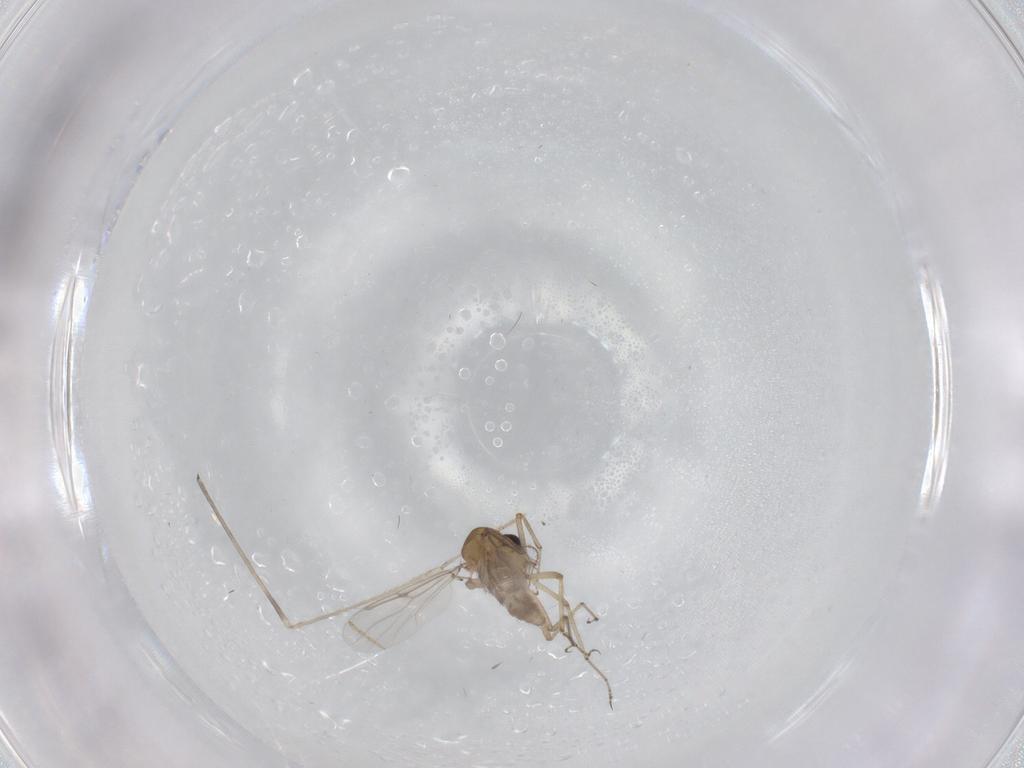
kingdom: Animalia
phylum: Arthropoda
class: Insecta
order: Diptera
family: Limoniidae
